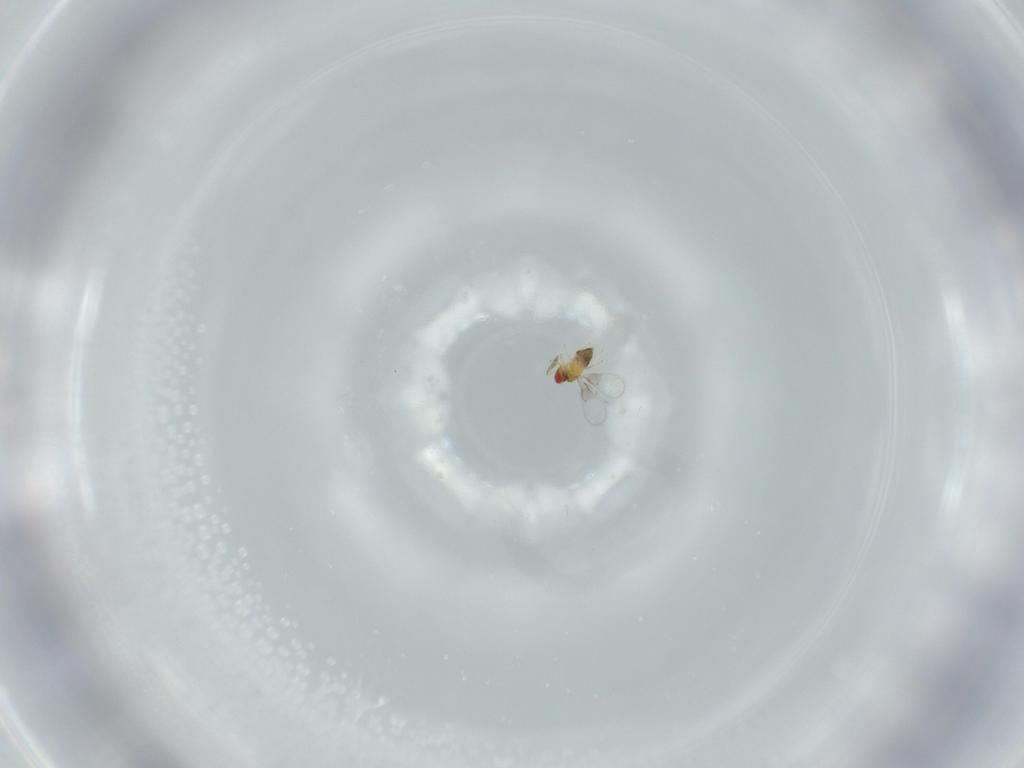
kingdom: Animalia
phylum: Arthropoda
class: Insecta
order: Hymenoptera
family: Trichogrammatidae
